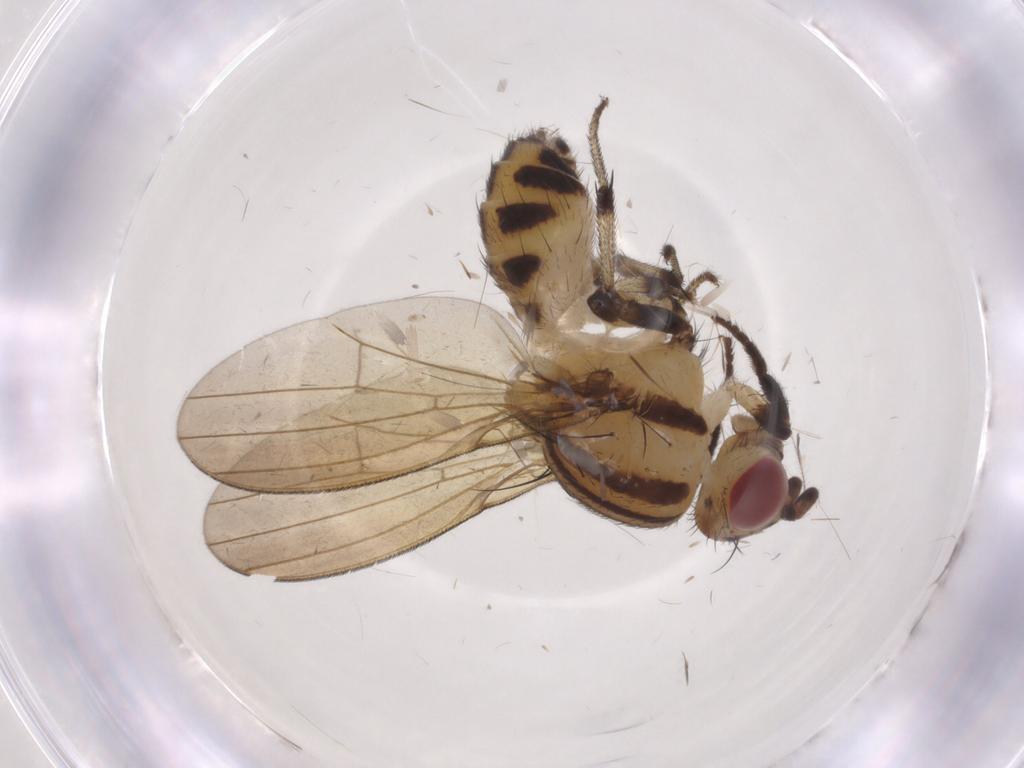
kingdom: Animalia
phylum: Arthropoda
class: Insecta
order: Diptera
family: Lauxaniidae
